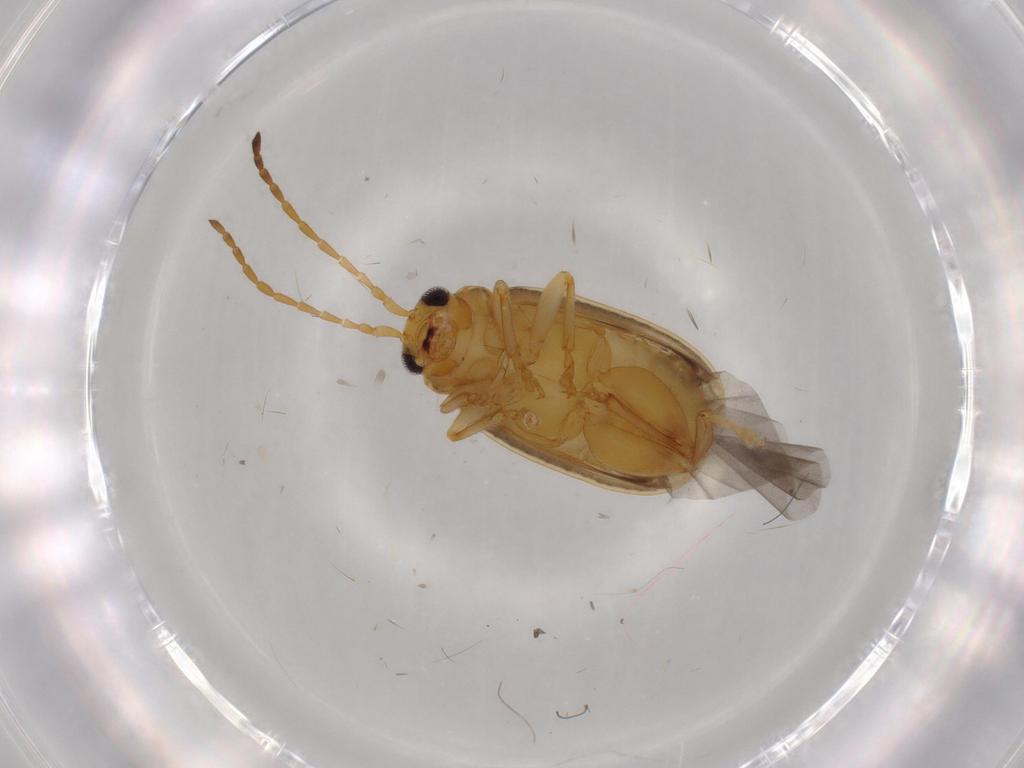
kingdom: Animalia
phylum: Arthropoda
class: Insecta
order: Coleoptera
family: Chrysomelidae
